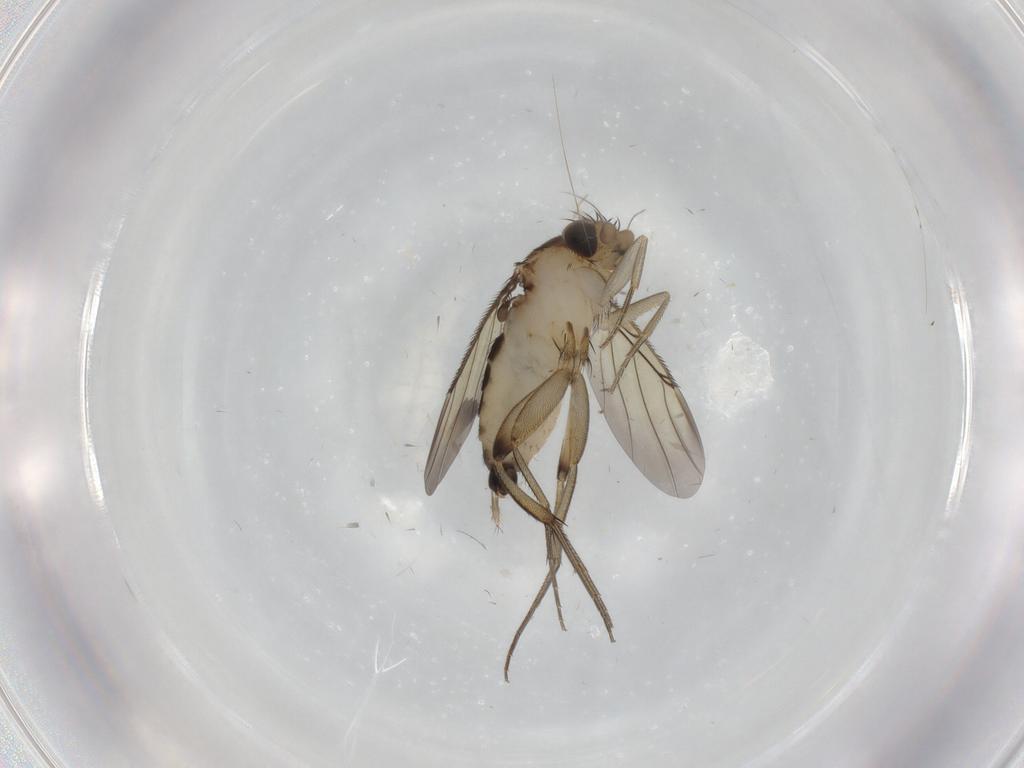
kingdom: Animalia
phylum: Arthropoda
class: Insecta
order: Diptera
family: Phoridae
